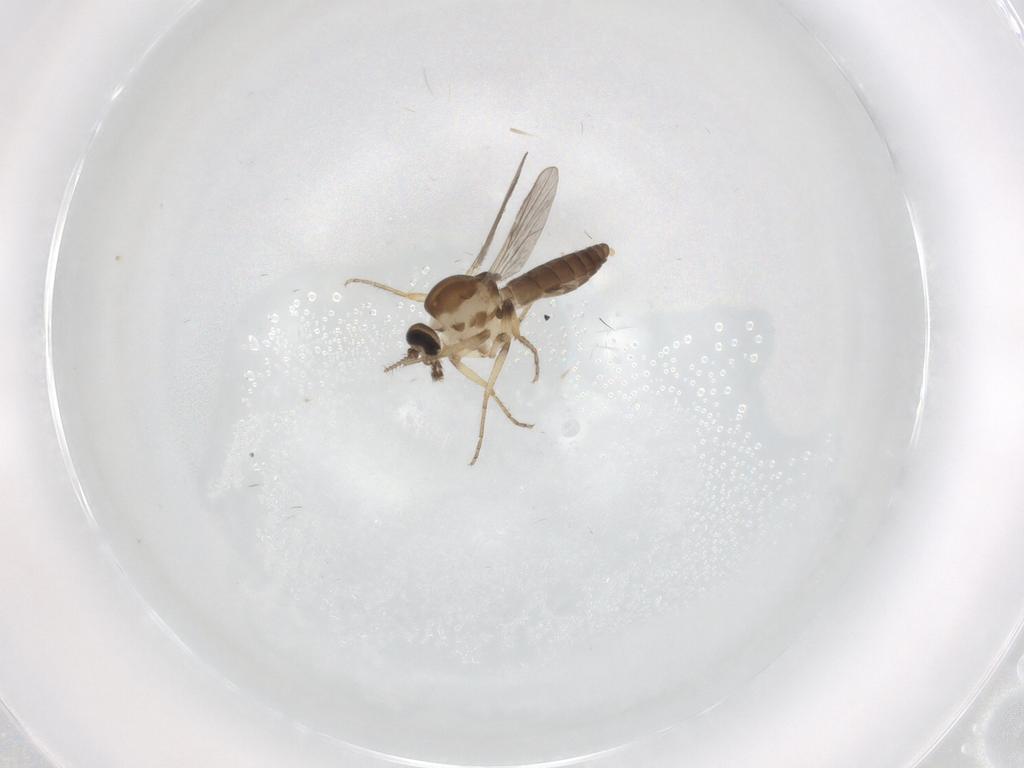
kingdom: Animalia
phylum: Arthropoda
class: Insecta
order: Diptera
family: Ceratopogonidae
